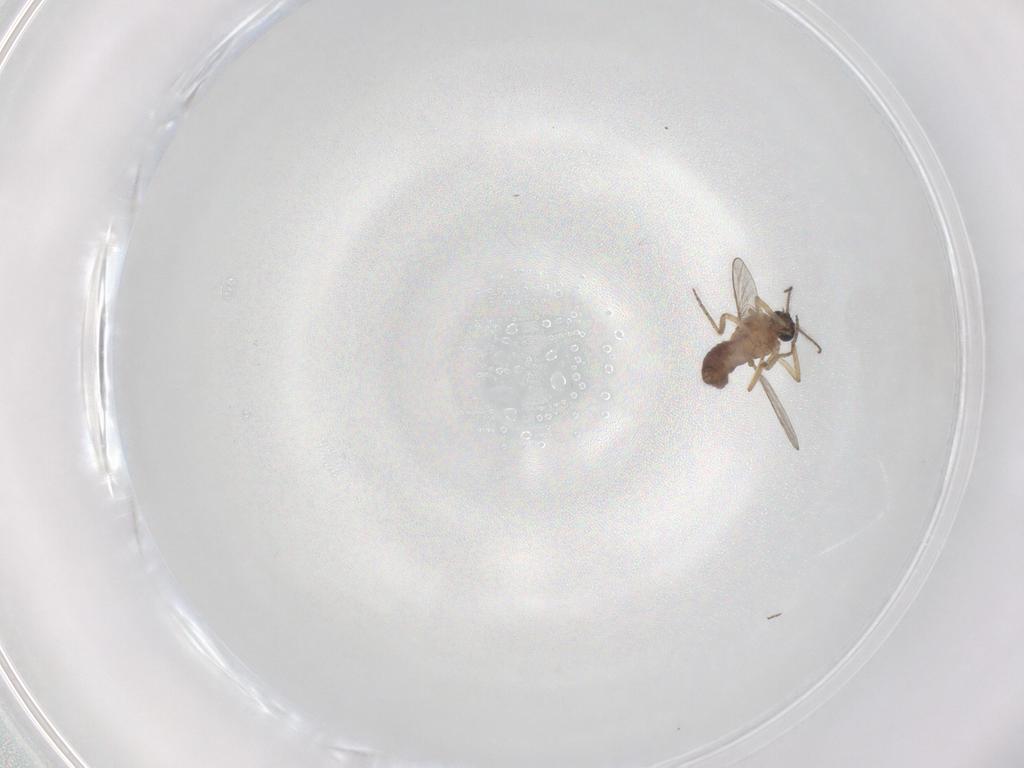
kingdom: Animalia
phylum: Arthropoda
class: Insecta
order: Diptera
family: Ceratopogonidae
